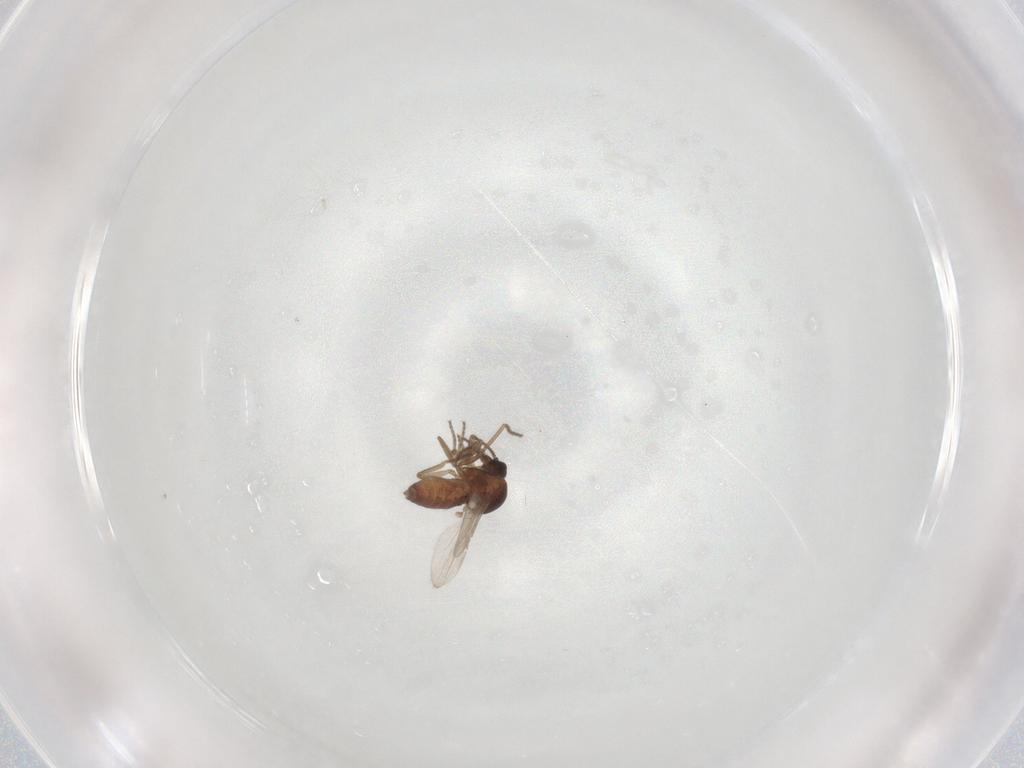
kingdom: Animalia
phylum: Arthropoda
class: Insecta
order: Diptera
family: Ceratopogonidae
